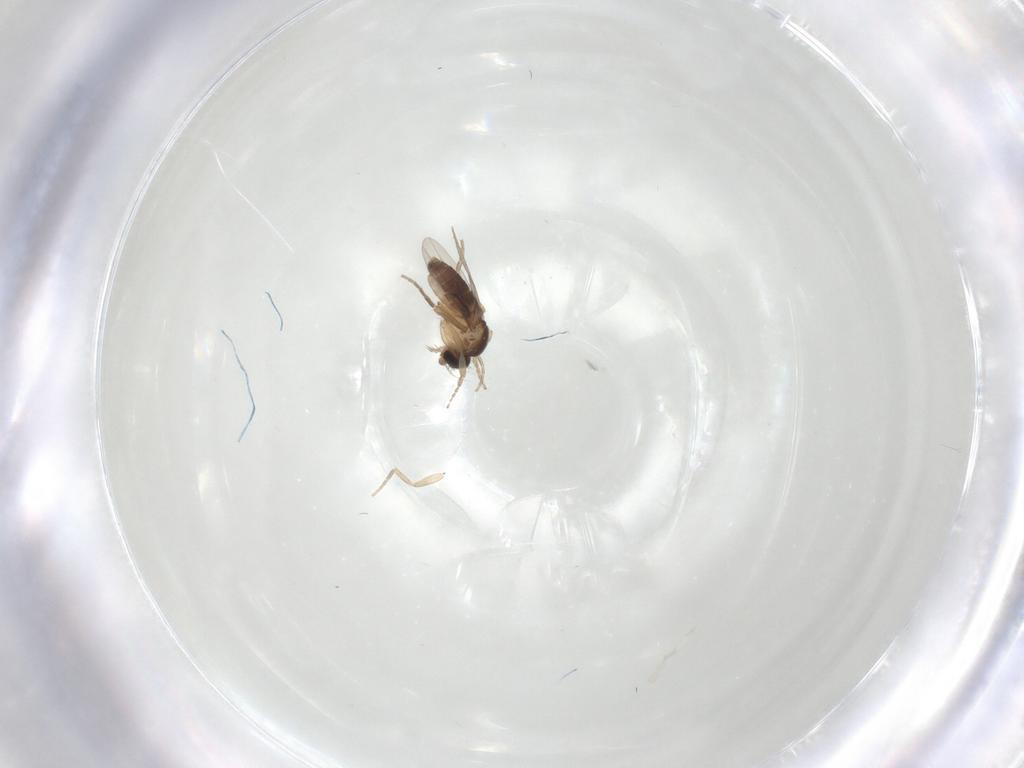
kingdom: Animalia
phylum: Arthropoda
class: Insecta
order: Diptera
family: Phoridae
